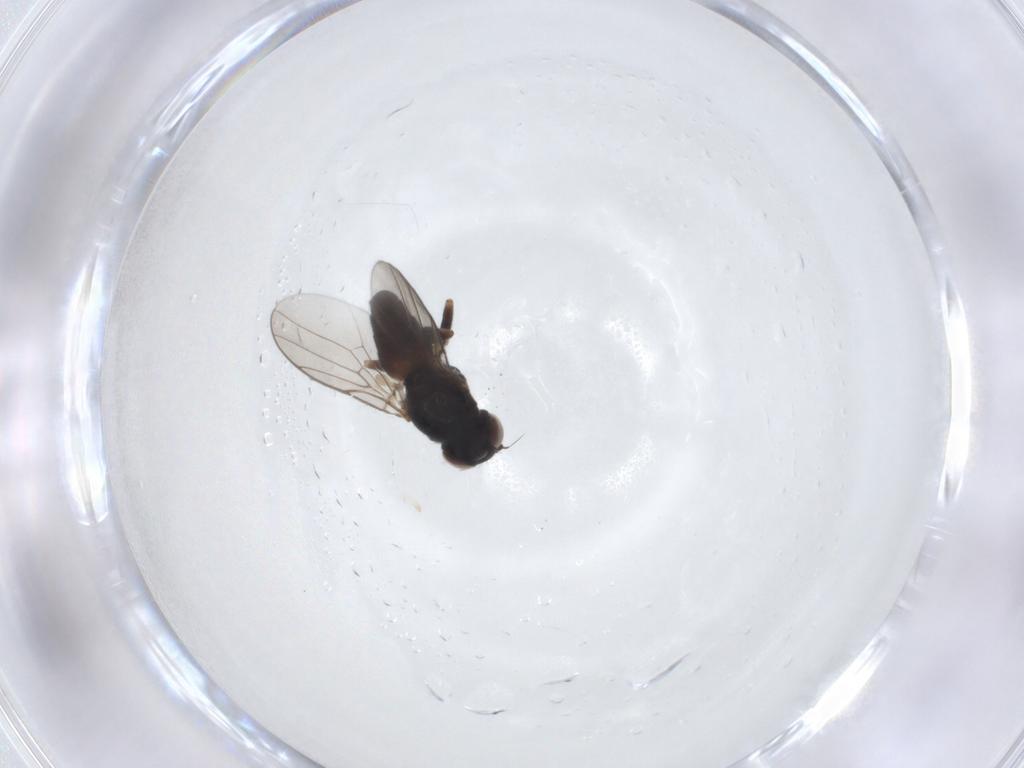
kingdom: Animalia
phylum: Arthropoda
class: Insecta
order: Diptera
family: Chloropidae
